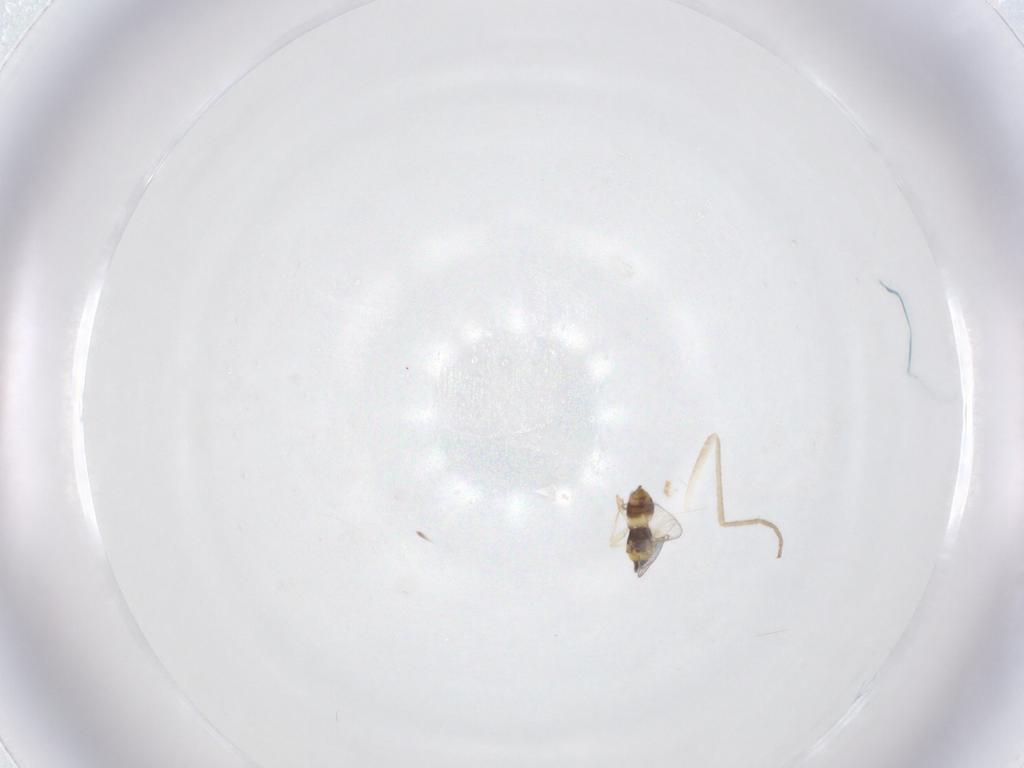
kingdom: Animalia
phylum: Arthropoda
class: Insecta
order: Hymenoptera
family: Eulophidae
